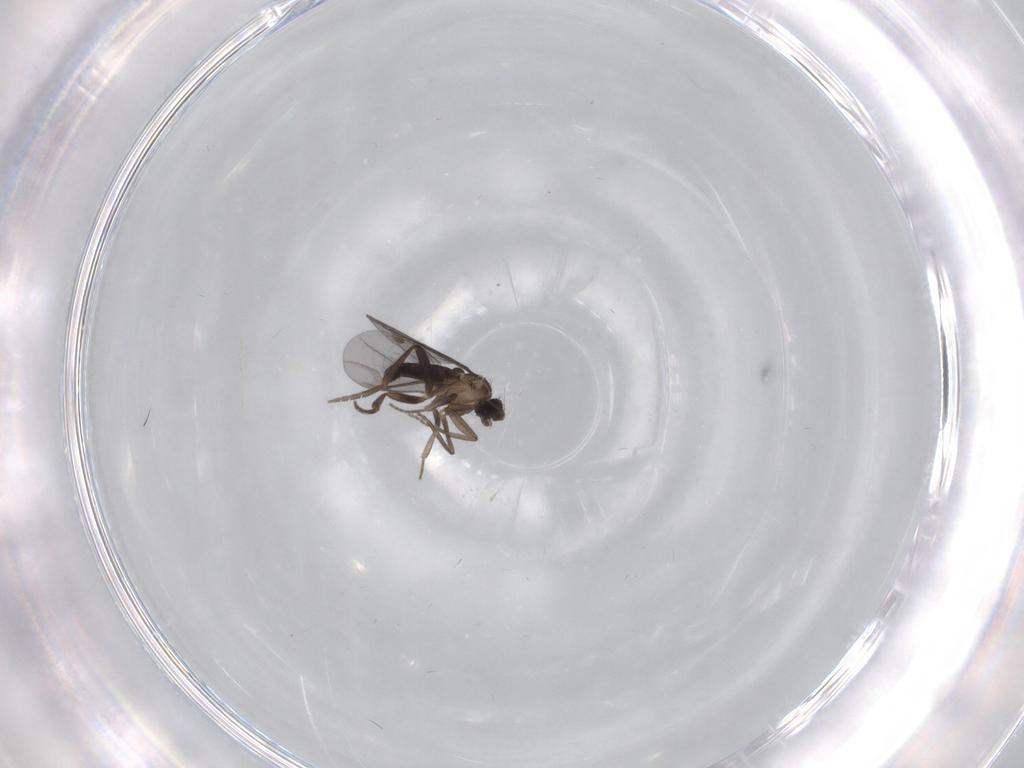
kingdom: Animalia
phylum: Arthropoda
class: Insecta
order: Diptera
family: Phoridae
